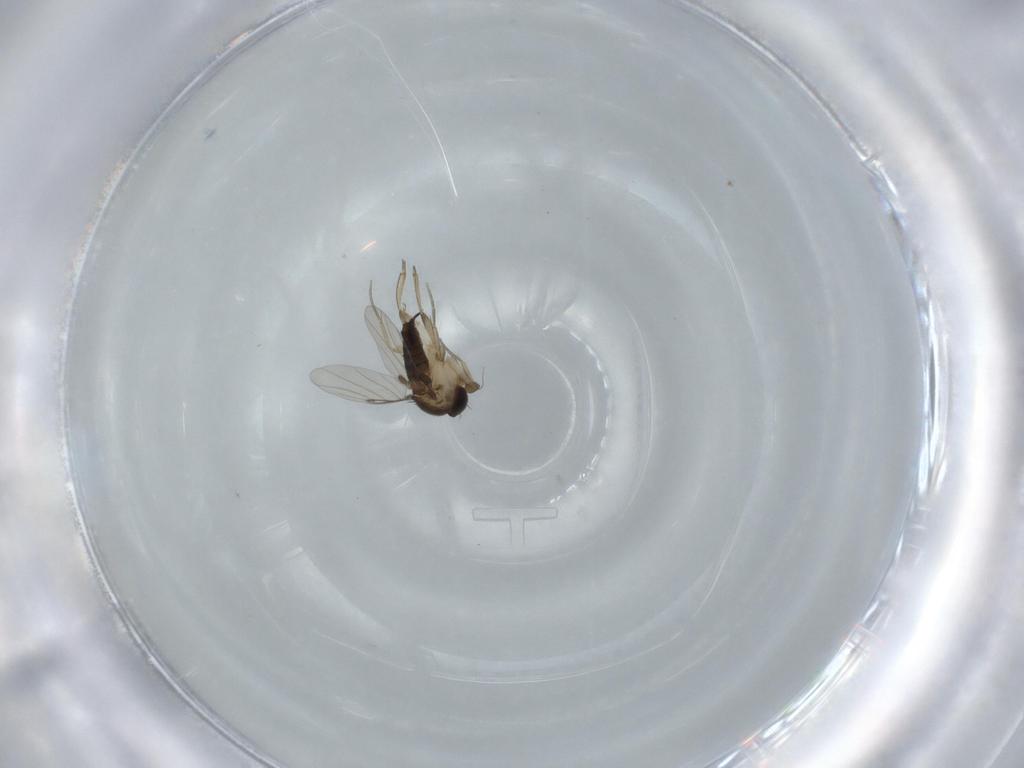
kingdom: Animalia
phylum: Arthropoda
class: Insecta
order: Diptera
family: Phoridae
